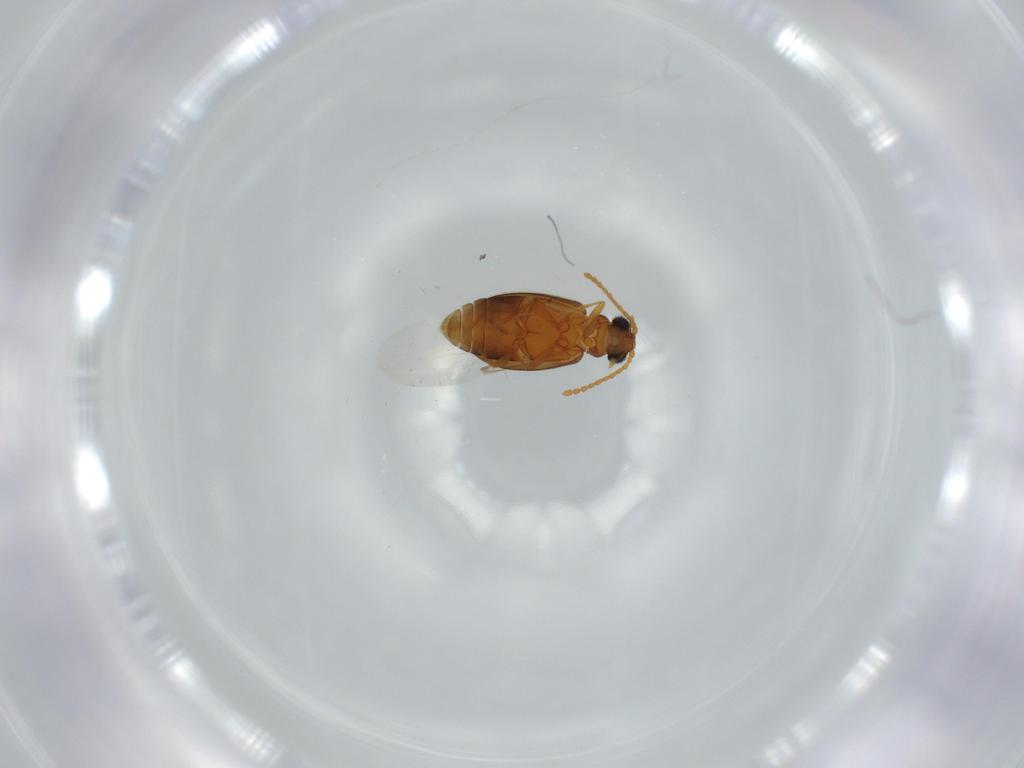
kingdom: Animalia
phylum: Arthropoda
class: Insecta
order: Coleoptera
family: Aderidae
